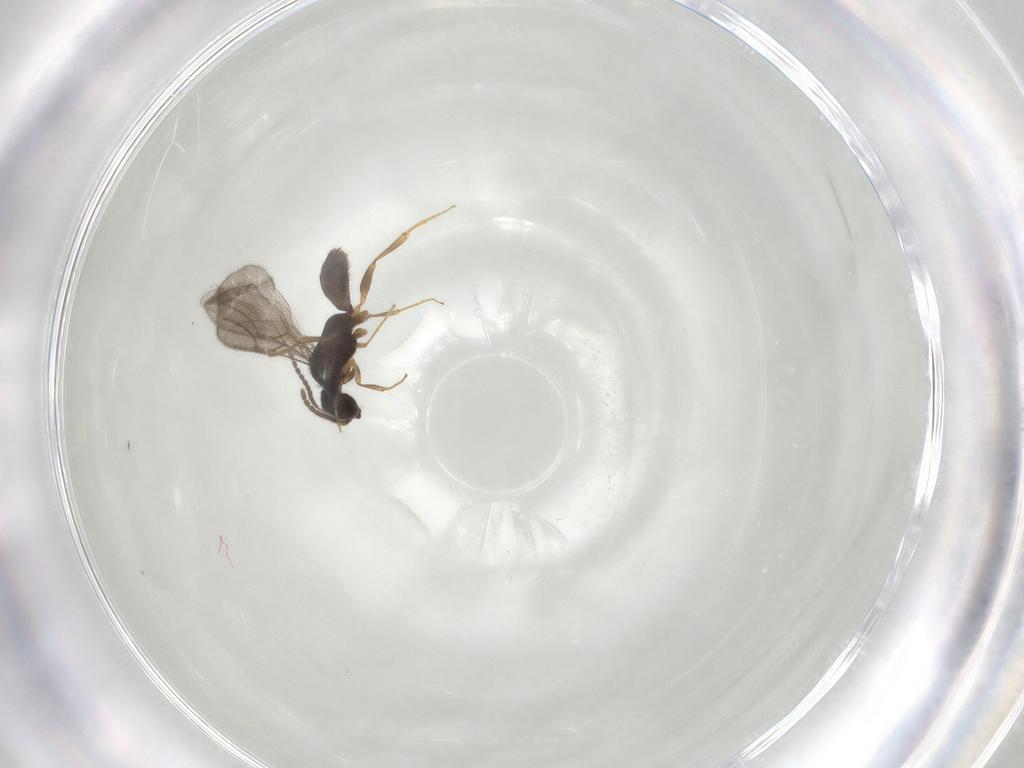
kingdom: Animalia
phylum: Arthropoda
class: Insecta
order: Hymenoptera
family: Bethylidae
